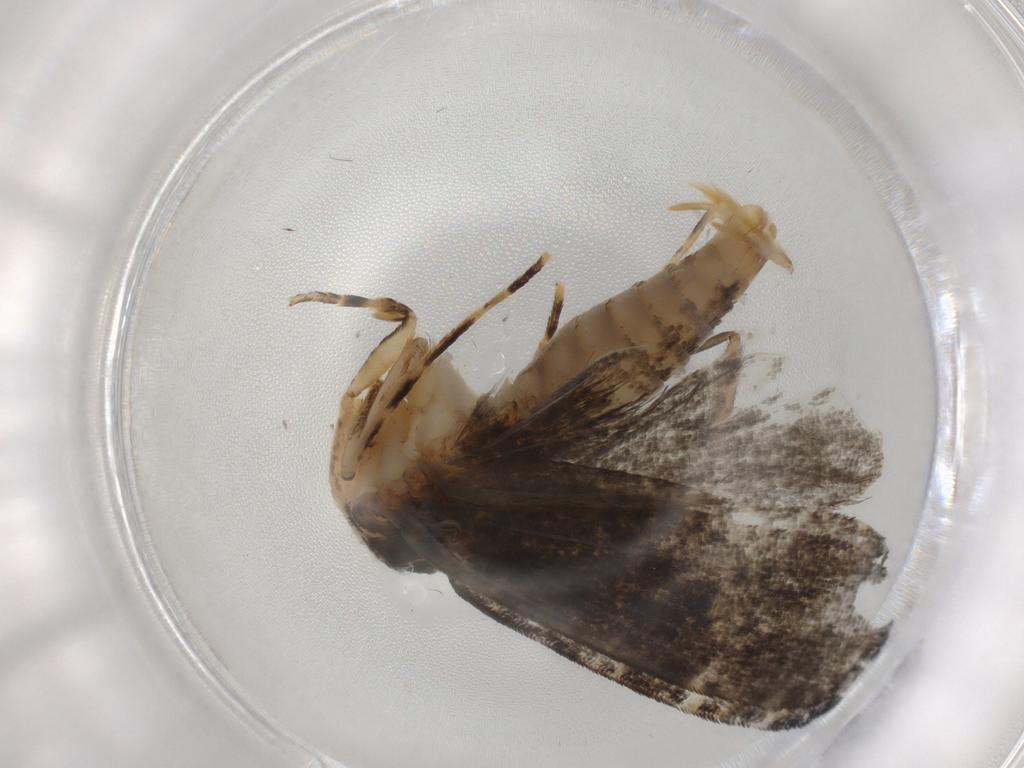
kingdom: Animalia
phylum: Arthropoda
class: Insecta
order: Lepidoptera
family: Tineidae
